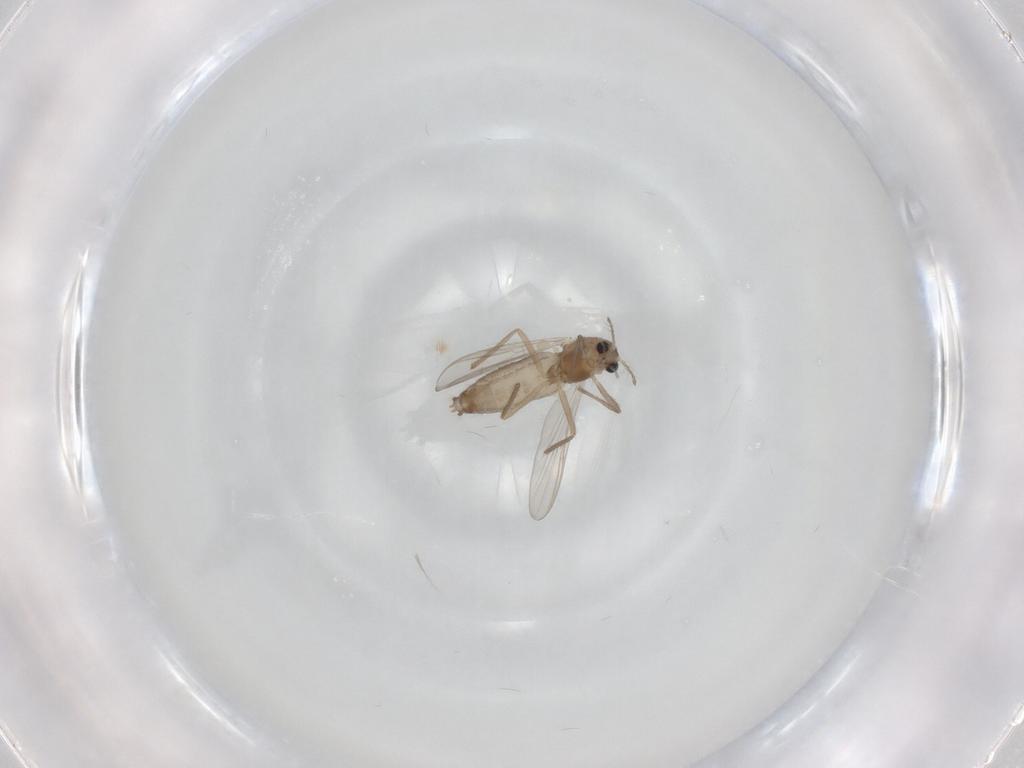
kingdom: Animalia
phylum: Arthropoda
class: Insecta
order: Diptera
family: Chironomidae
